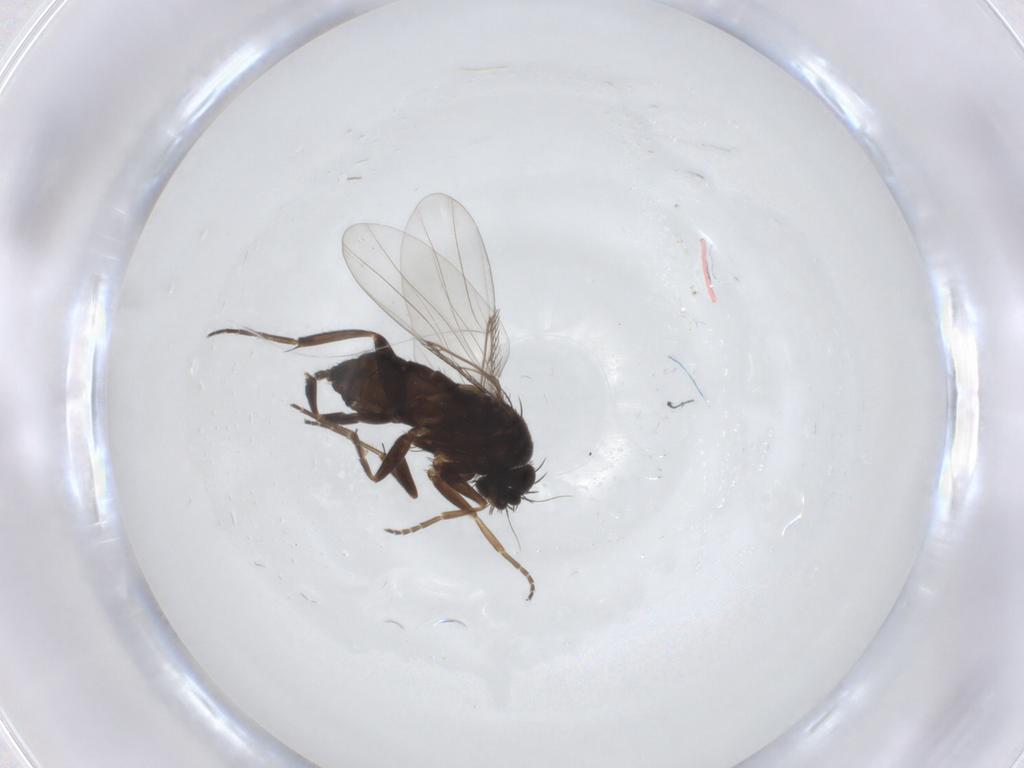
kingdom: Animalia
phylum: Arthropoda
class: Insecta
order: Diptera
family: Phoridae
